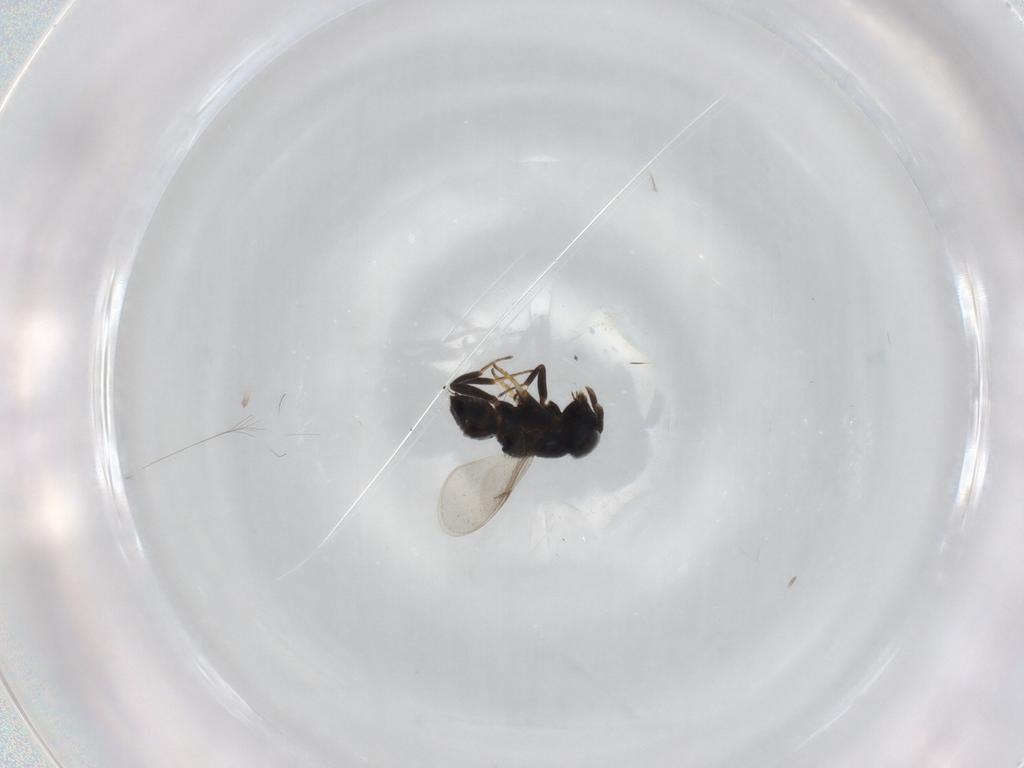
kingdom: Animalia
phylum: Arthropoda
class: Insecta
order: Hymenoptera
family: Encyrtidae
